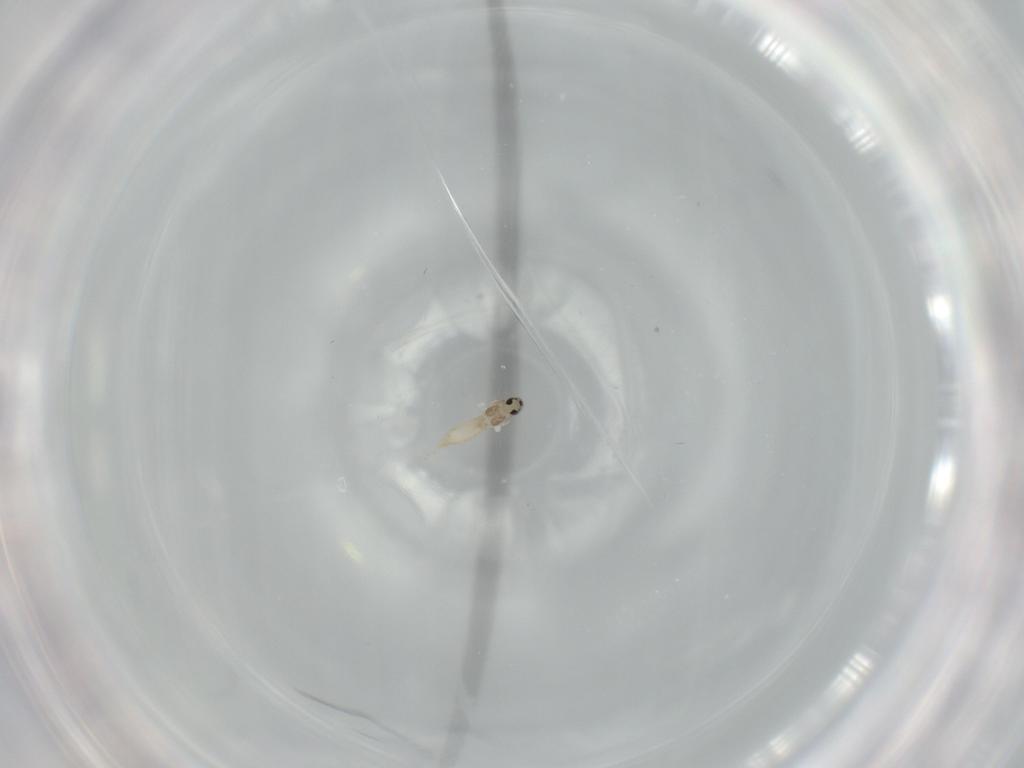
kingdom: Animalia
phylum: Arthropoda
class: Insecta
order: Diptera
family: Cecidomyiidae
